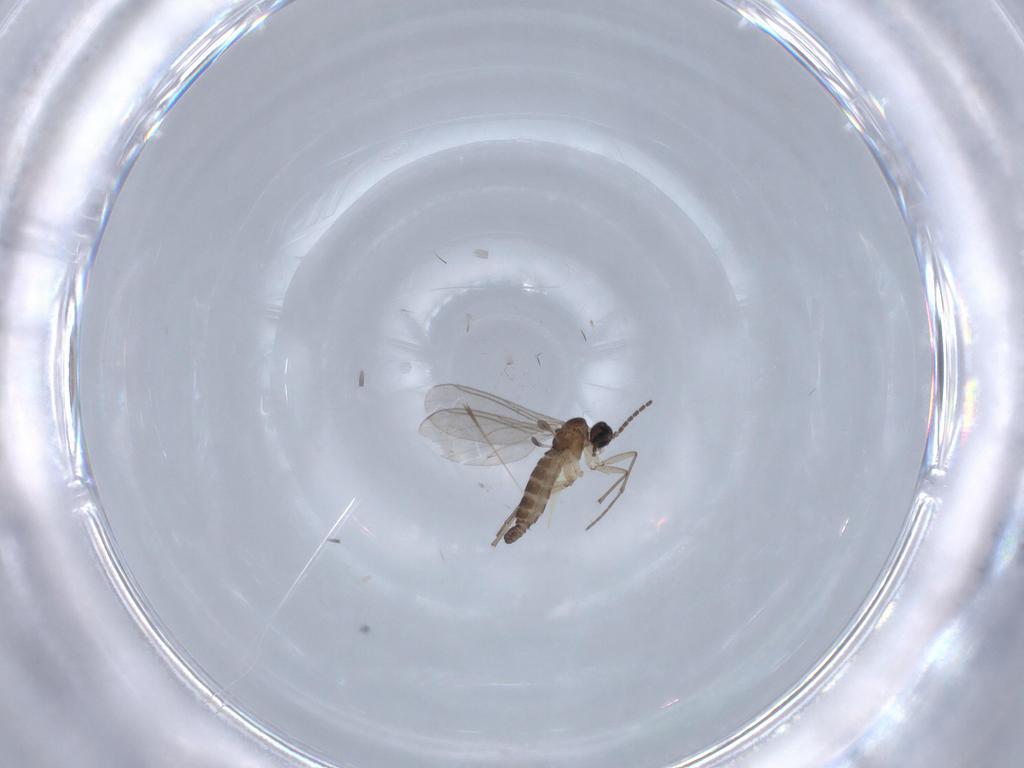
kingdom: Animalia
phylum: Arthropoda
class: Insecta
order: Diptera
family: Sciaridae
